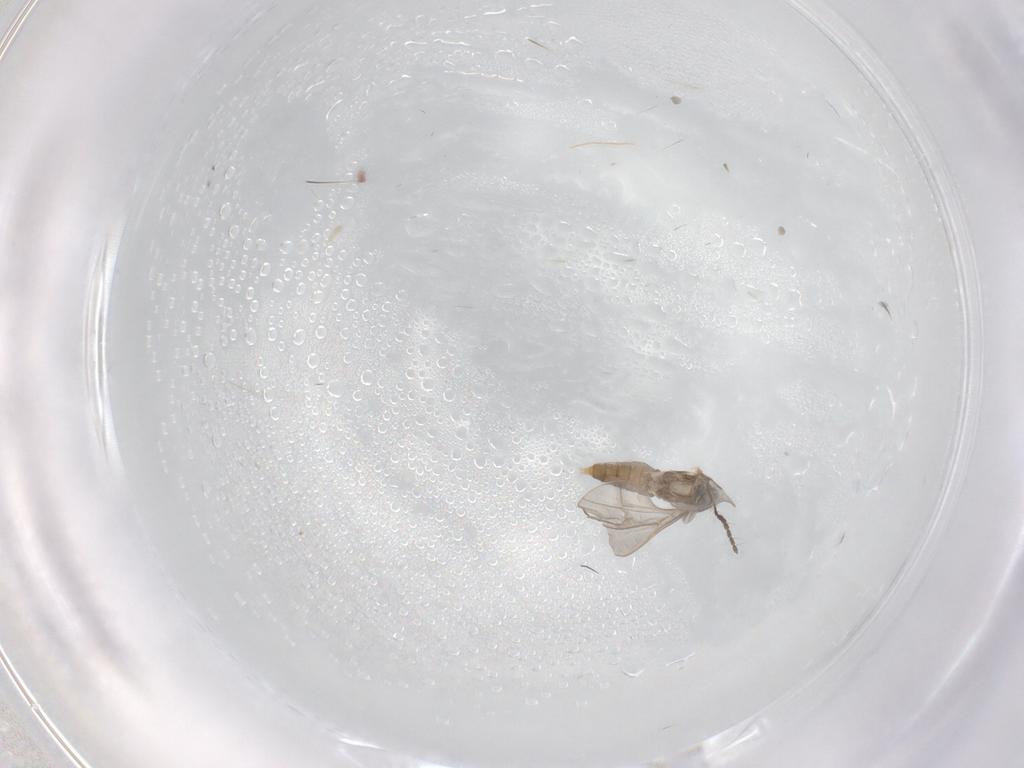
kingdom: Animalia
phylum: Arthropoda
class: Insecta
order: Diptera
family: Cecidomyiidae
